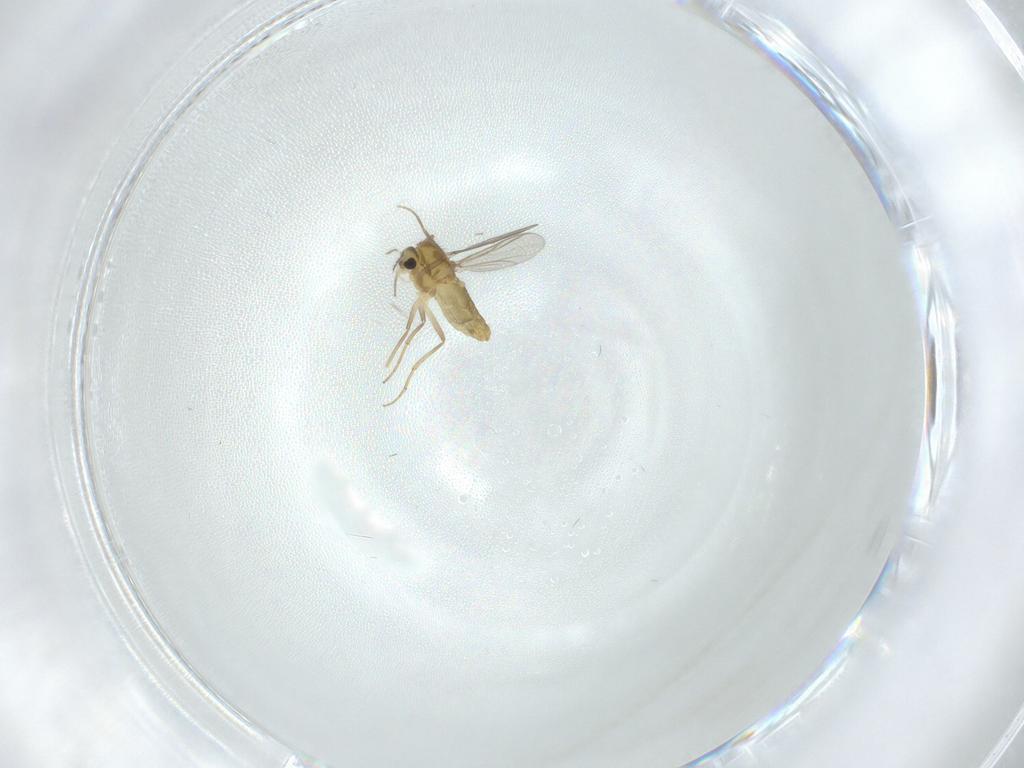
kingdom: Animalia
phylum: Arthropoda
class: Insecta
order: Diptera
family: Chironomidae
